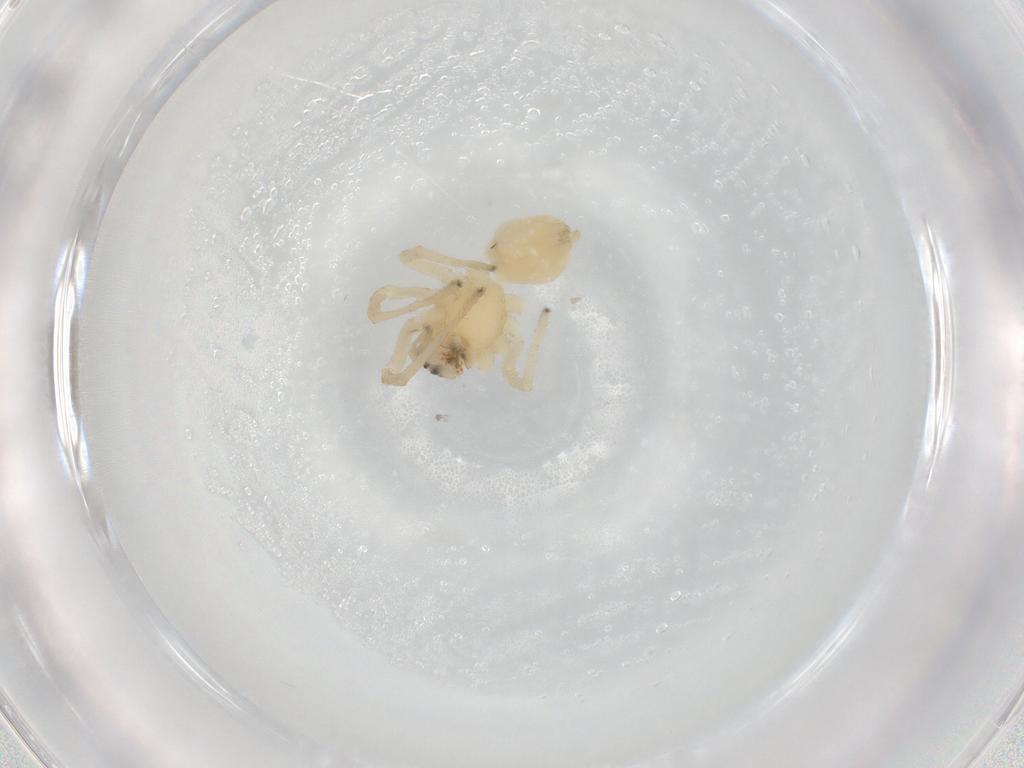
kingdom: Animalia
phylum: Arthropoda
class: Arachnida
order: Araneae
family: Cheiracanthiidae
